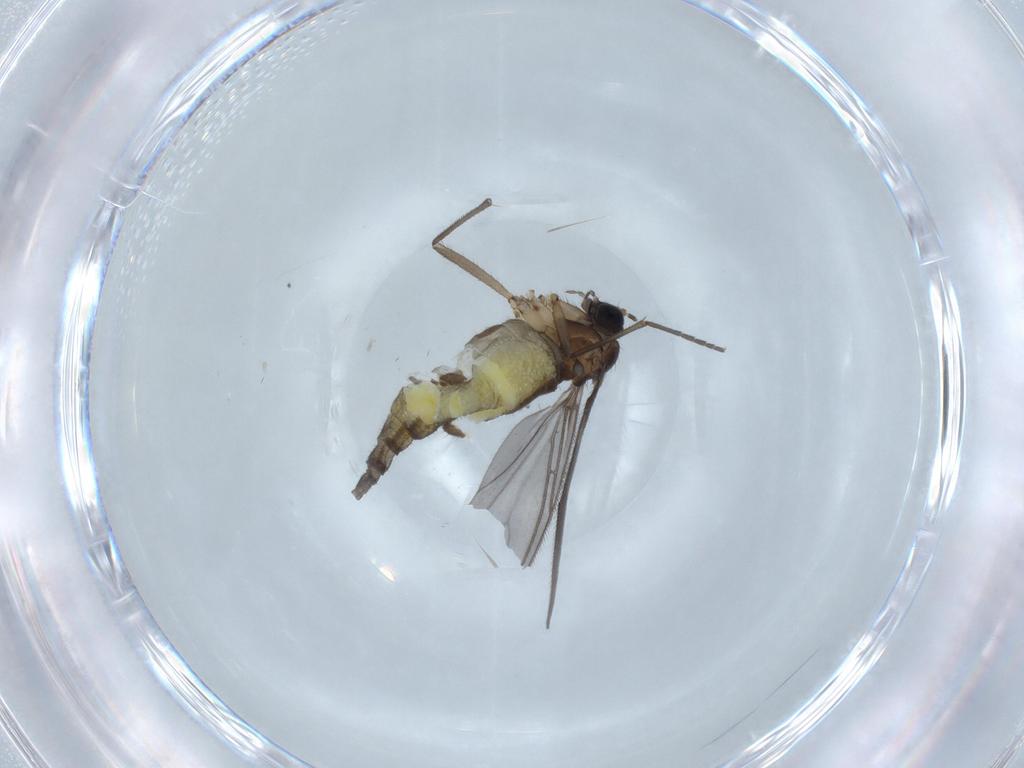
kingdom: Animalia
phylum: Arthropoda
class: Insecta
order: Diptera
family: Sciaridae
